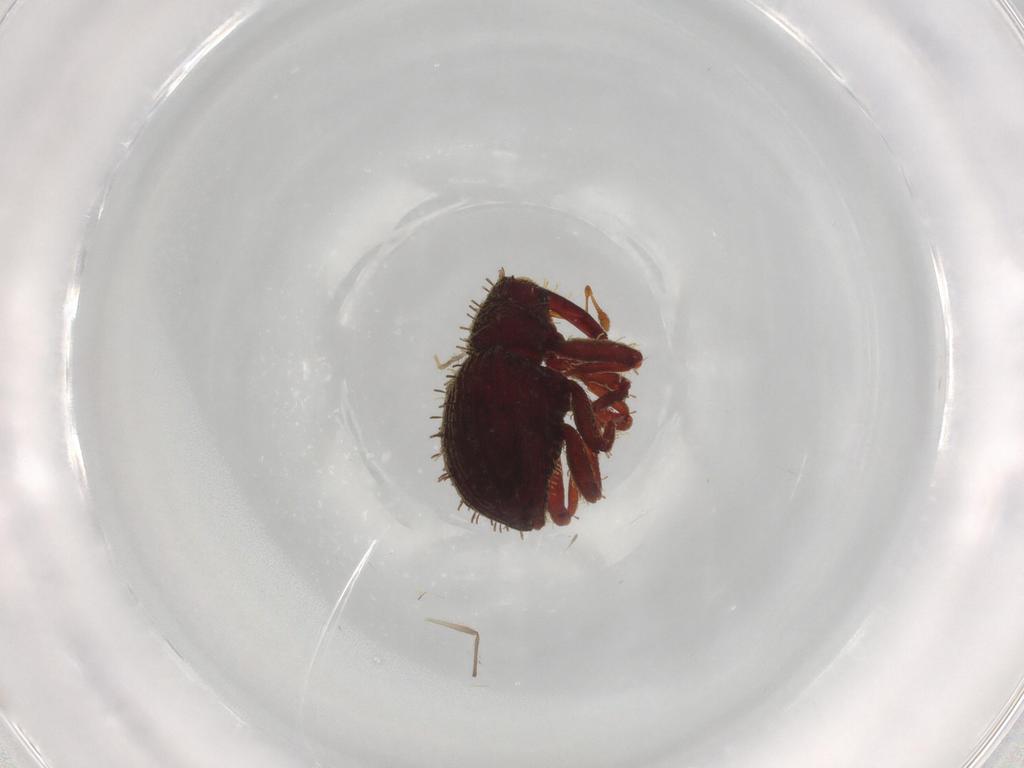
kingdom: Animalia
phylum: Arthropoda
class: Insecta
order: Coleoptera
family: Curculionidae
